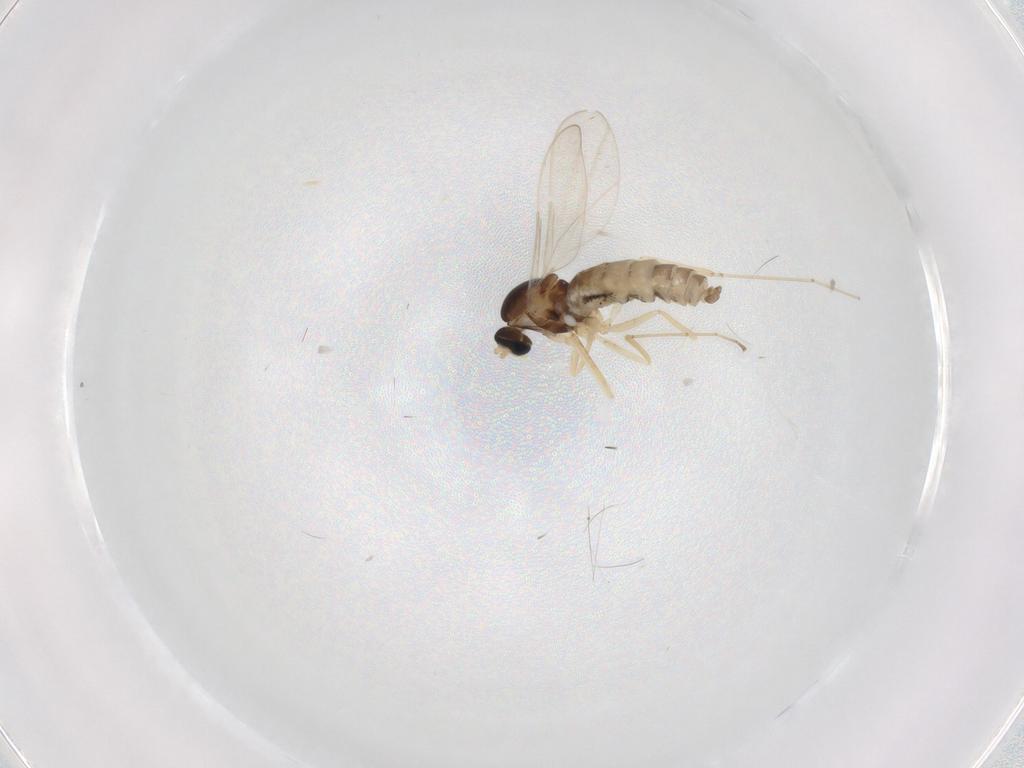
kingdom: Animalia
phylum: Arthropoda
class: Insecta
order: Diptera
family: Cecidomyiidae
